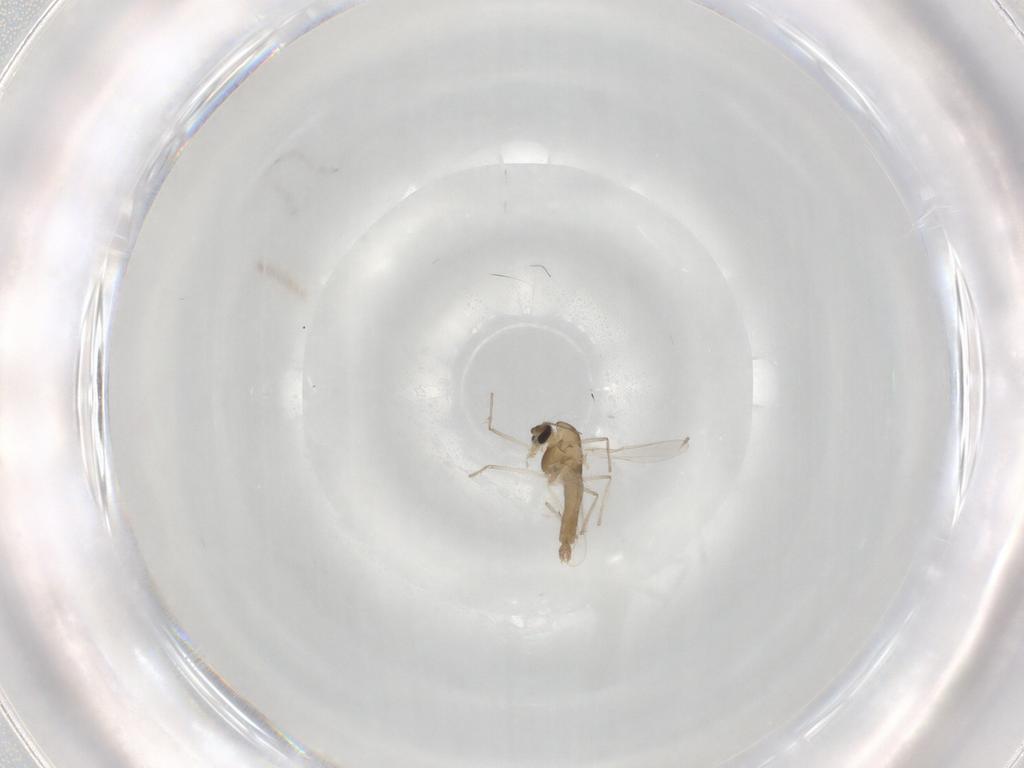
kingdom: Animalia
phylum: Arthropoda
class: Insecta
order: Diptera
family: Chironomidae
